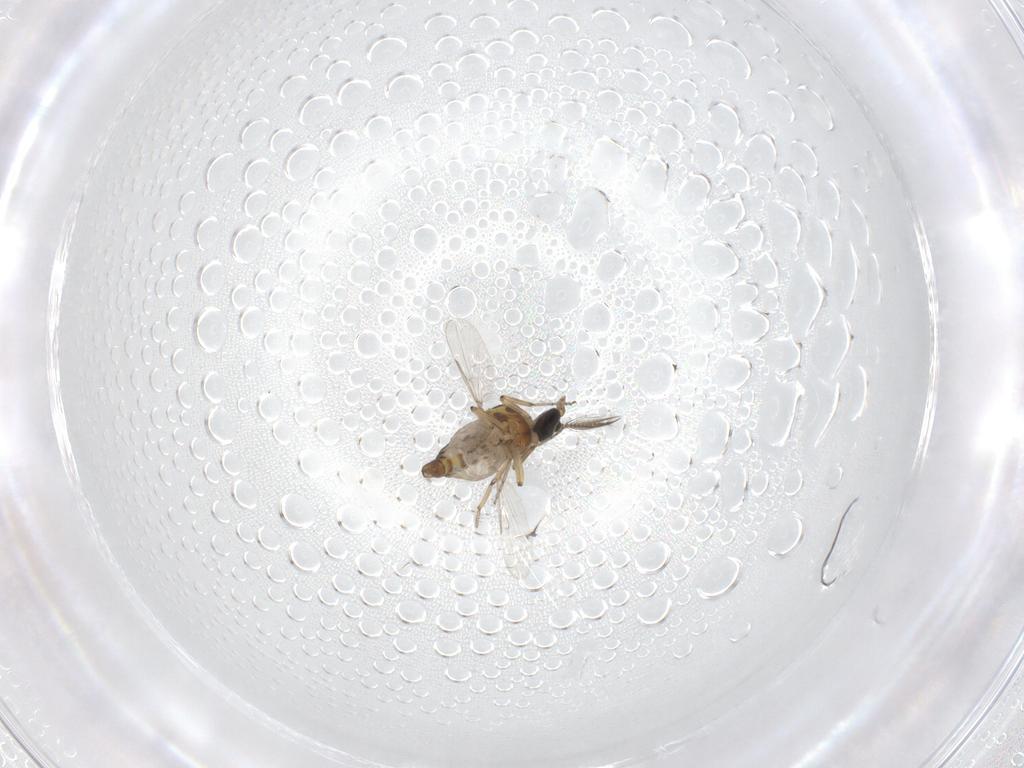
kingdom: Animalia
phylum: Arthropoda
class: Insecta
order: Diptera
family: Ceratopogonidae
